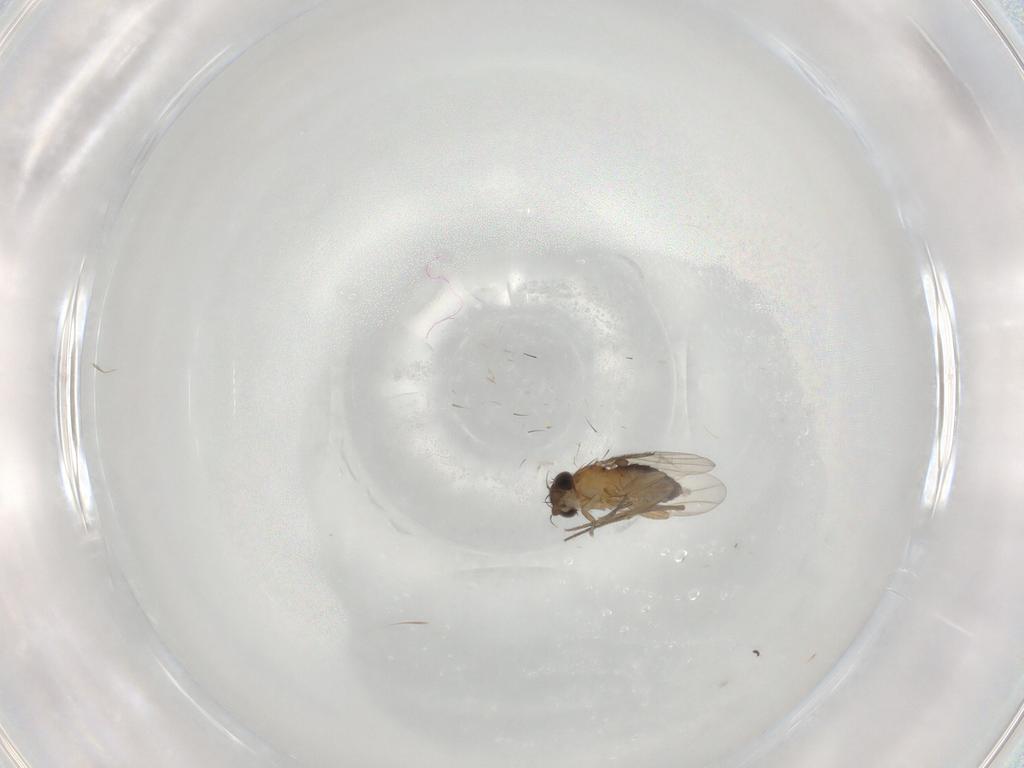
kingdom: Animalia
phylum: Arthropoda
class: Insecta
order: Diptera
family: Phoridae
